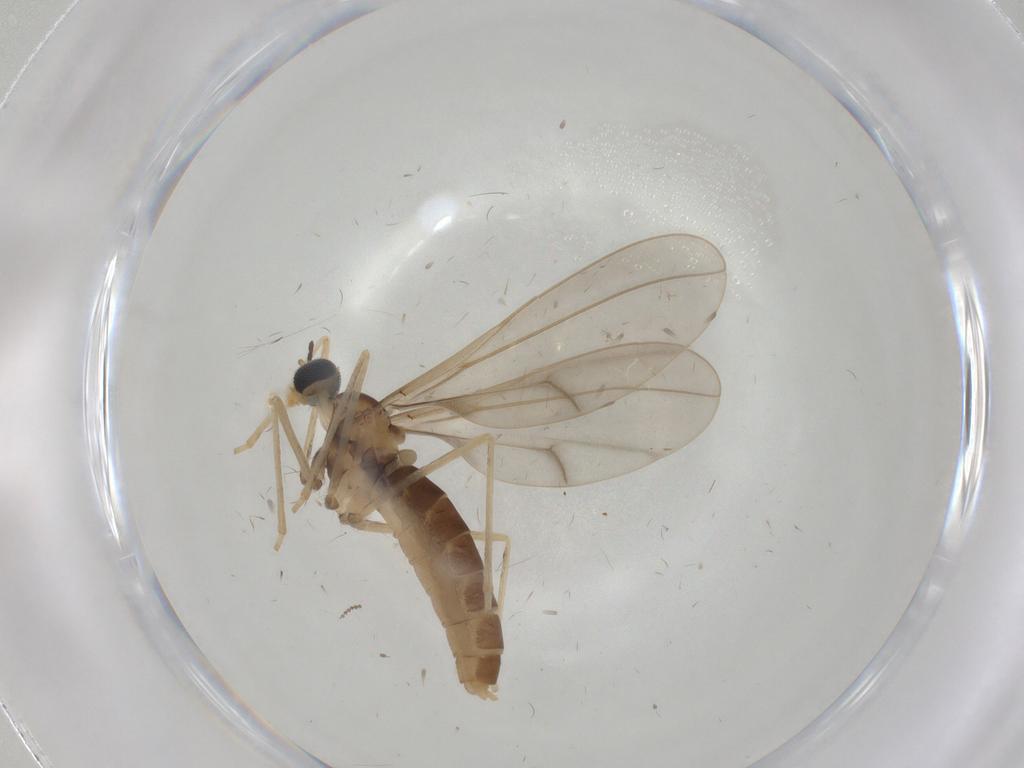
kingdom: Animalia
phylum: Arthropoda
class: Insecta
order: Diptera
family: Cecidomyiidae
